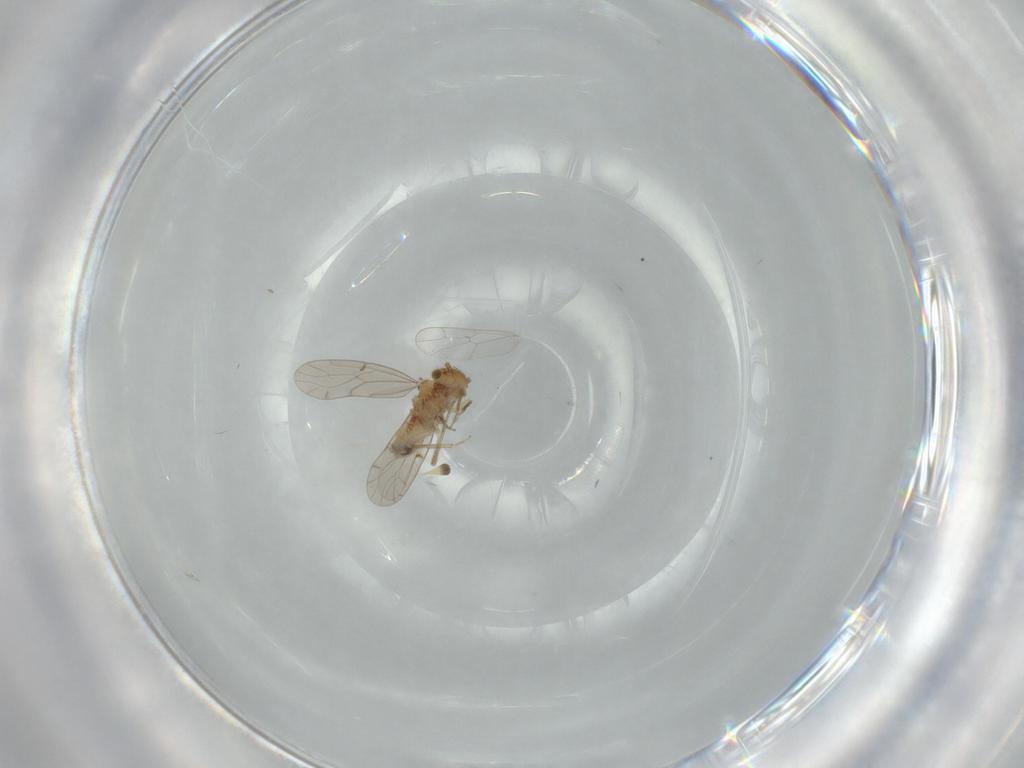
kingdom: Animalia
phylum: Arthropoda
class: Insecta
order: Psocodea
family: Ectopsocidae
